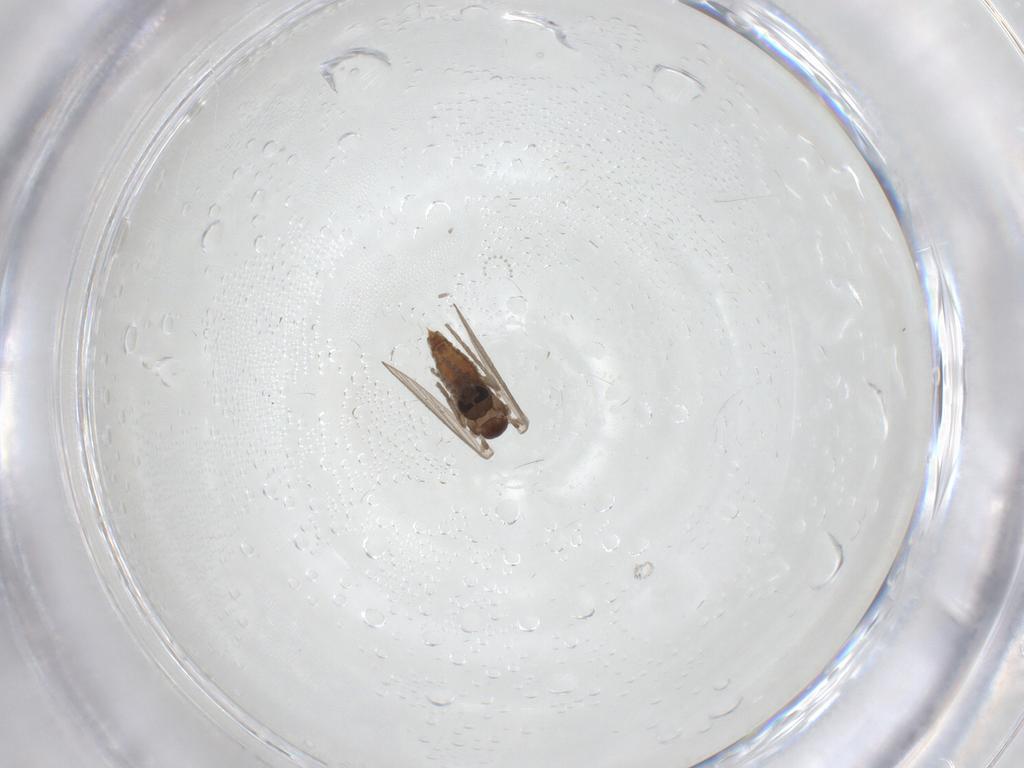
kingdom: Animalia
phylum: Arthropoda
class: Insecta
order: Diptera
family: Psychodidae
